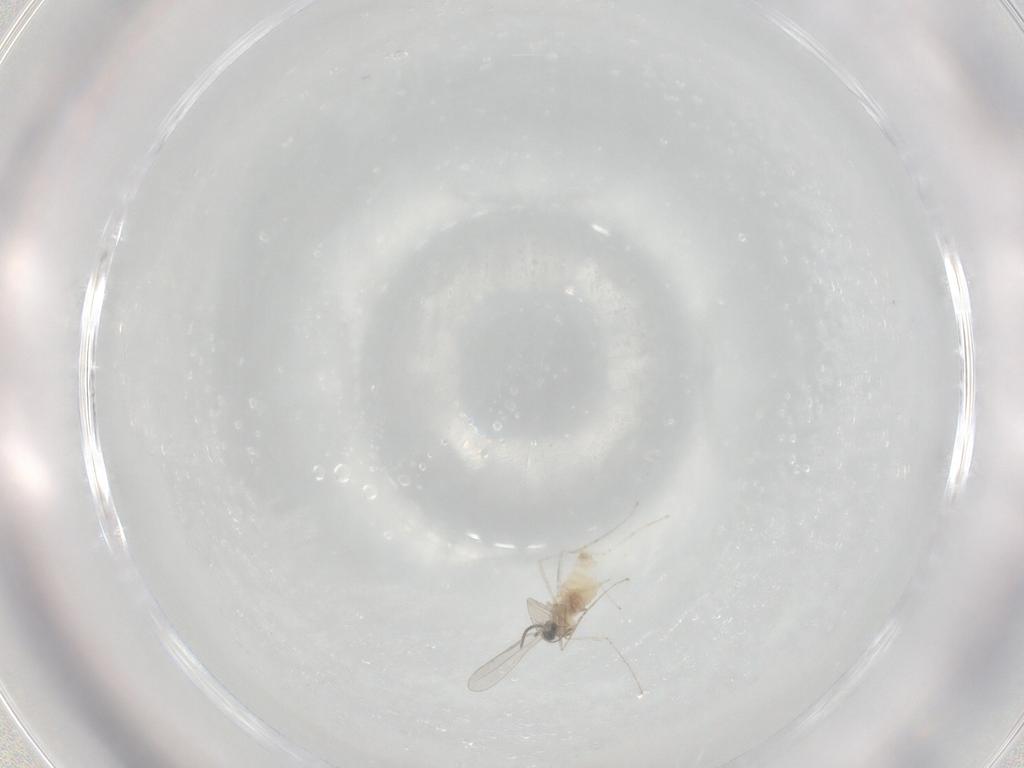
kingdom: Animalia
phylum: Arthropoda
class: Insecta
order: Diptera
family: Cecidomyiidae
